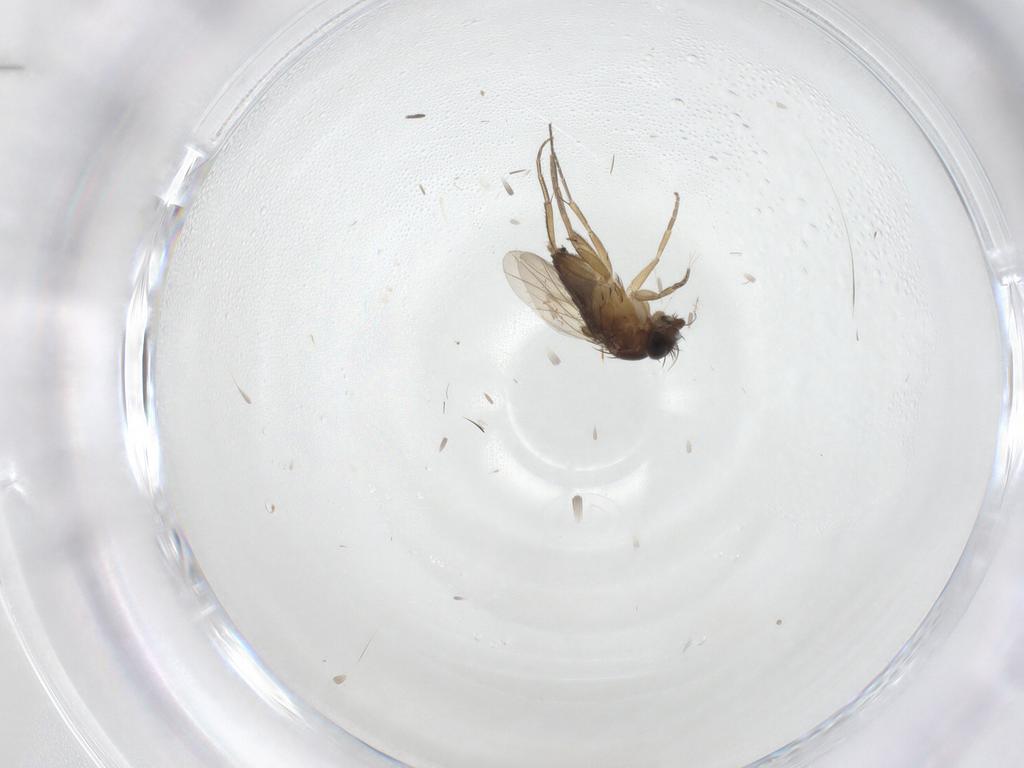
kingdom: Animalia
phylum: Arthropoda
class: Insecta
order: Diptera
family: Phoridae
